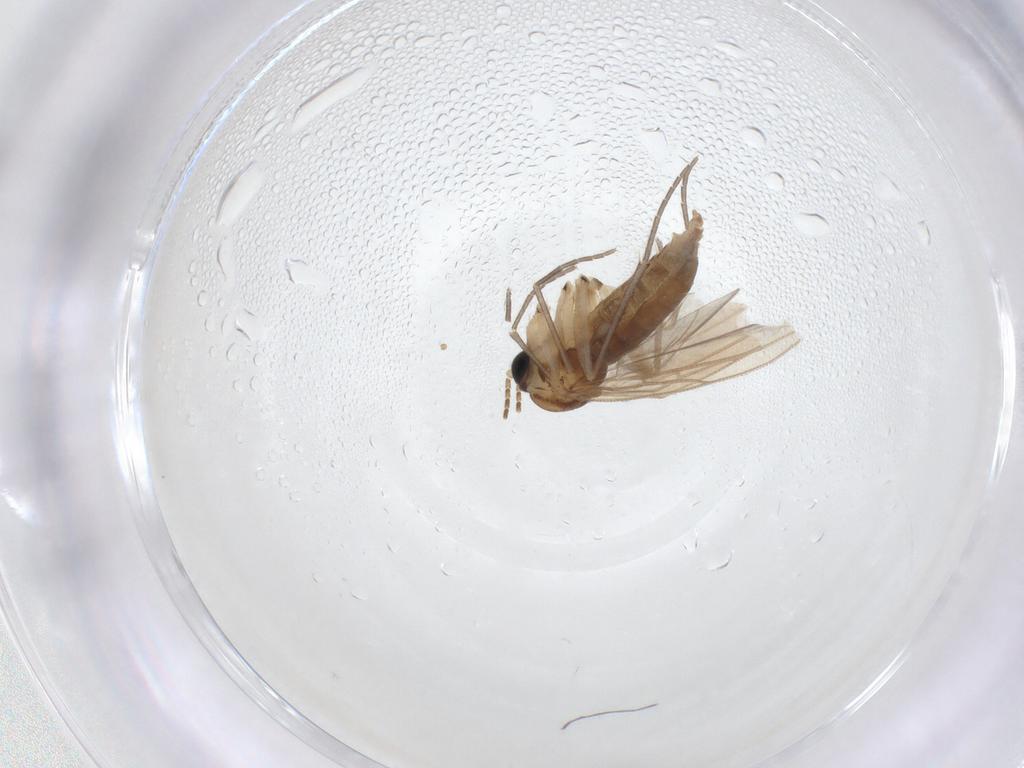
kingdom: Animalia
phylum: Arthropoda
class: Insecta
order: Diptera
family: Sciaridae
